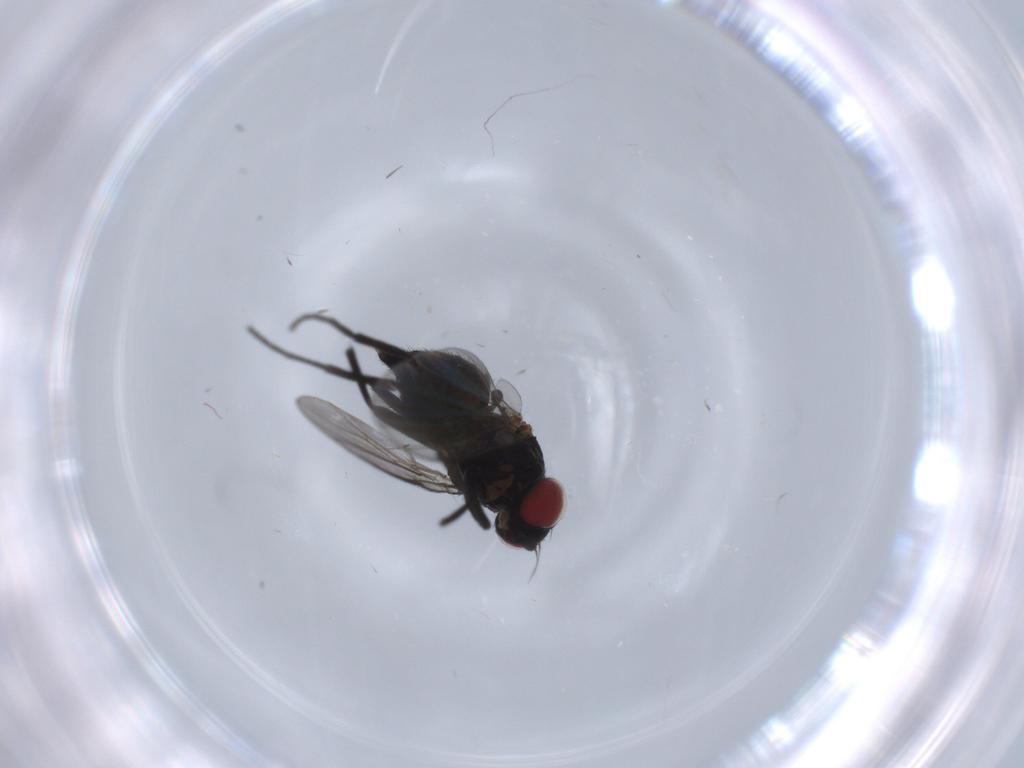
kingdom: Animalia
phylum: Arthropoda
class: Insecta
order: Diptera
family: Agromyzidae
